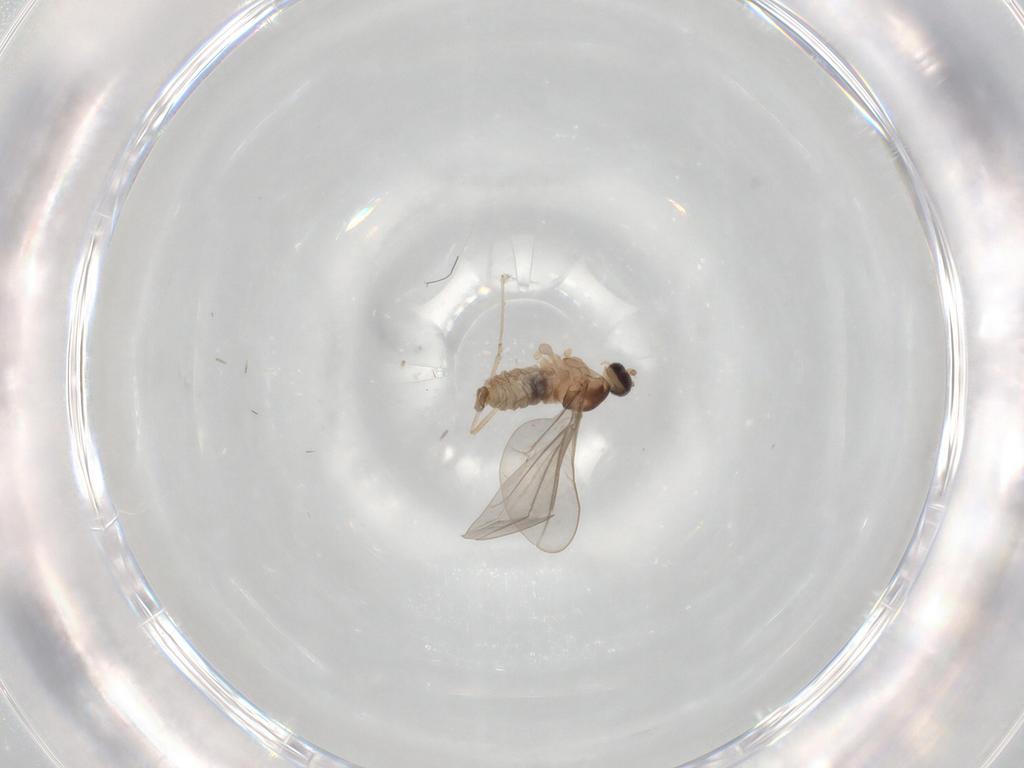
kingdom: Animalia
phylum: Arthropoda
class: Insecta
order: Diptera
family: Cecidomyiidae
